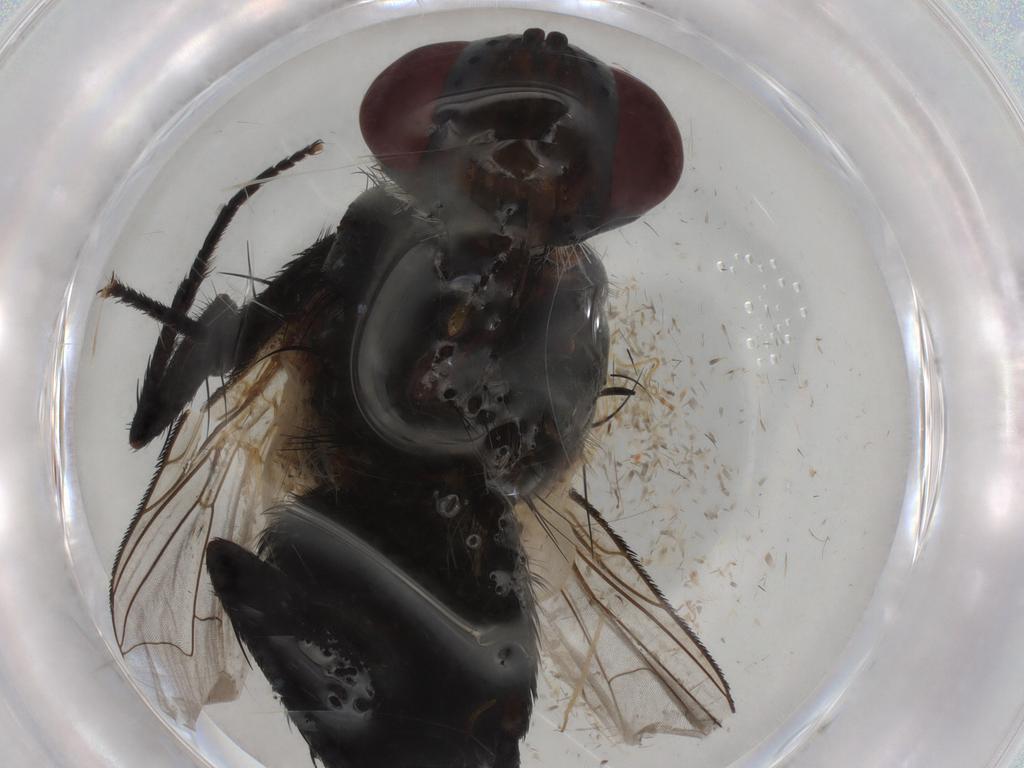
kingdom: Animalia
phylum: Arthropoda
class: Insecta
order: Diptera
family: Tachinidae
